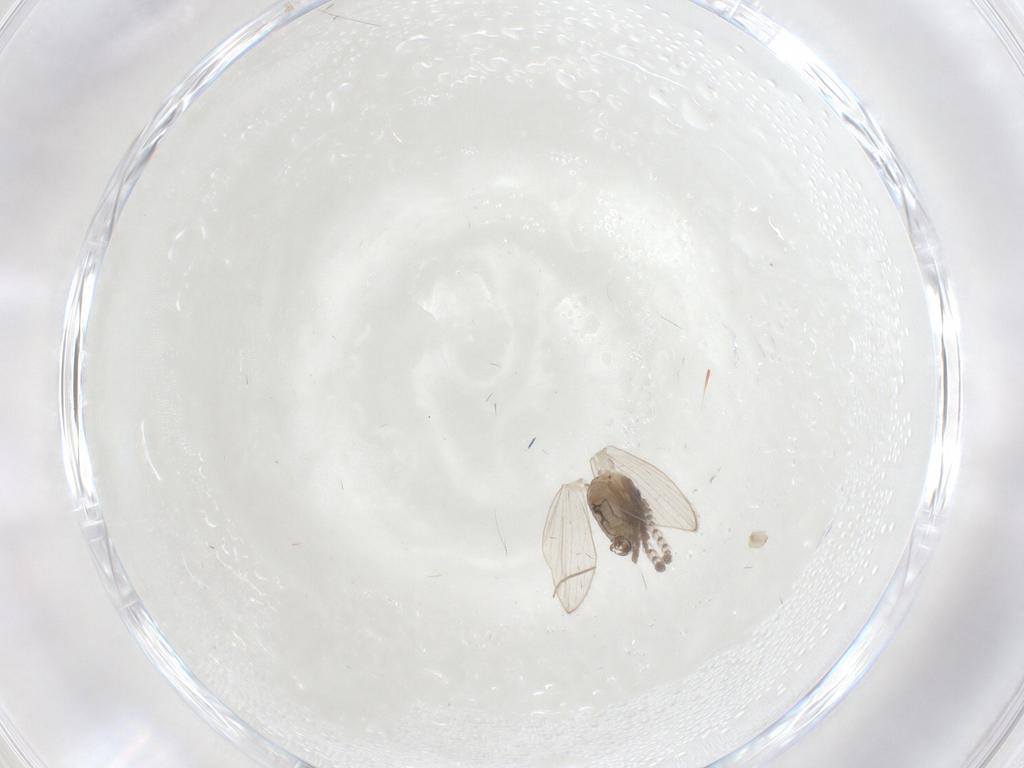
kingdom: Animalia
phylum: Arthropoda
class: Insecta
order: Diptera
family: Psychodidae
